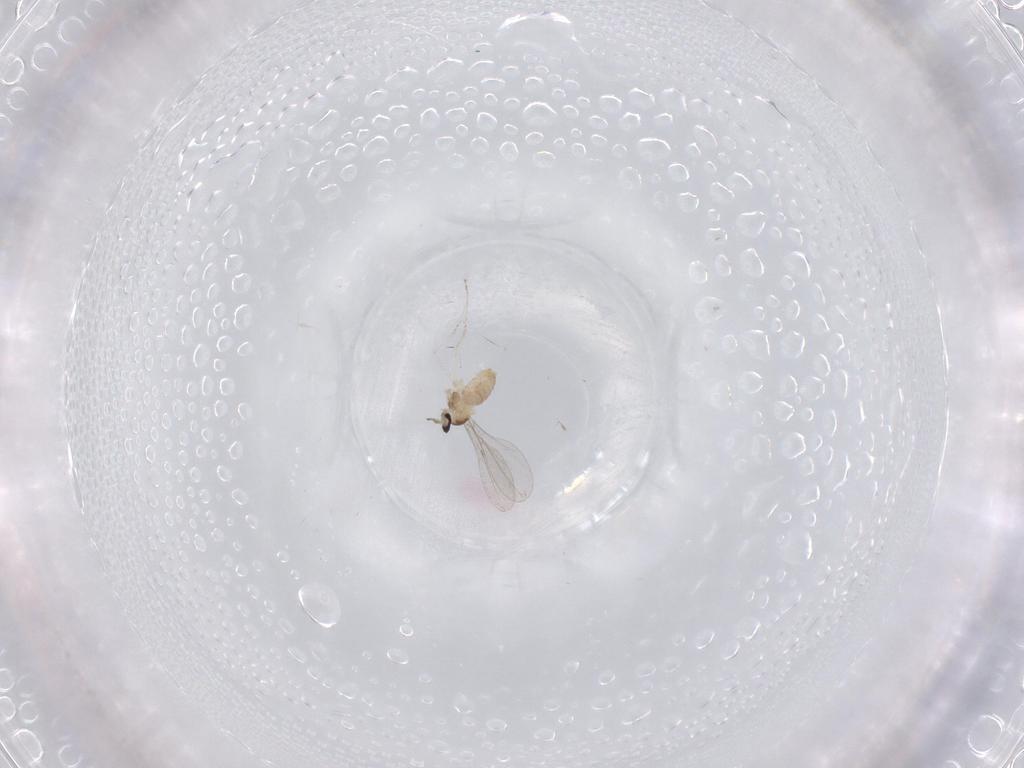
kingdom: Animalia
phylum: Arthropoda
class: Insecta
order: Diptera
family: Cecidomyiidae
